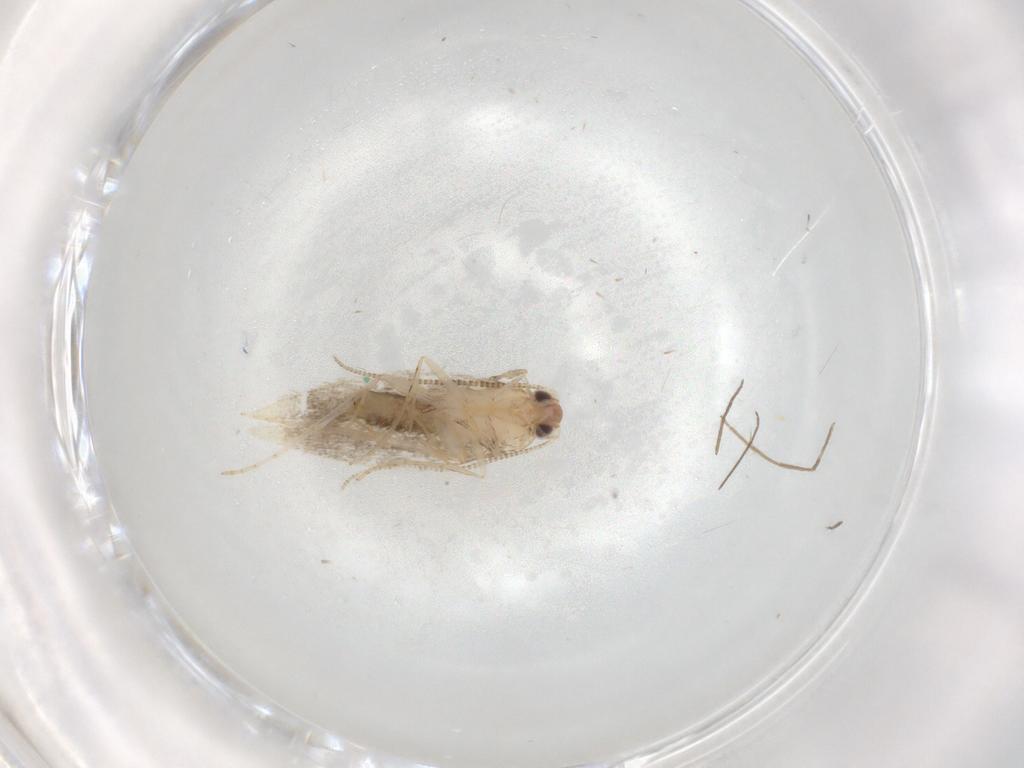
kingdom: Animalia
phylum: Arthropoda
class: Insecta
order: Lepidoptera
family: Tineidae
